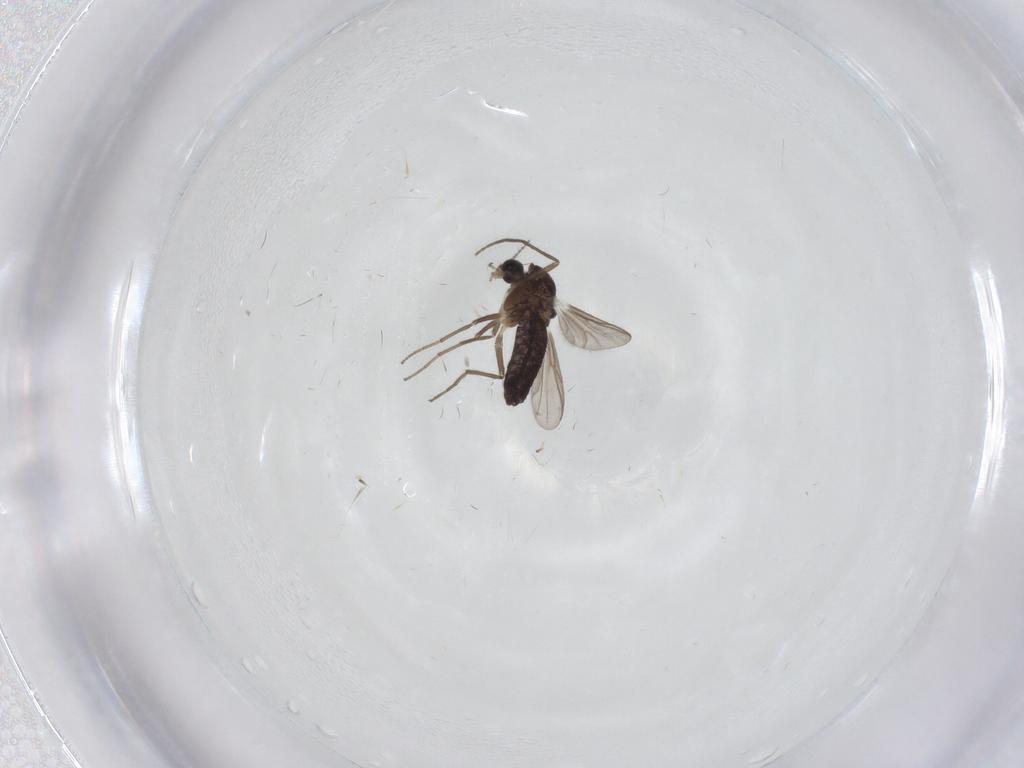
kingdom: Animalia
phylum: Arthropoda
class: Insecta
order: Diptera
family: Chironomidae
